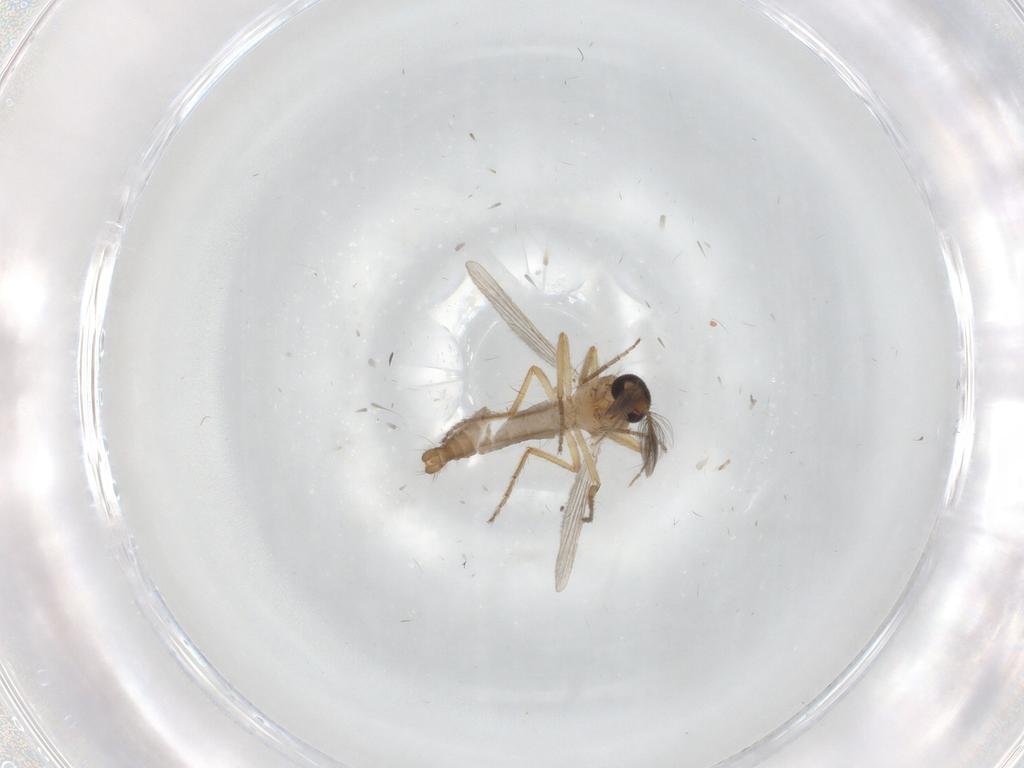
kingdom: Animalia
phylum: Arthropoda
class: Insecta
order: Diptera
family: Ceratopogonidae
